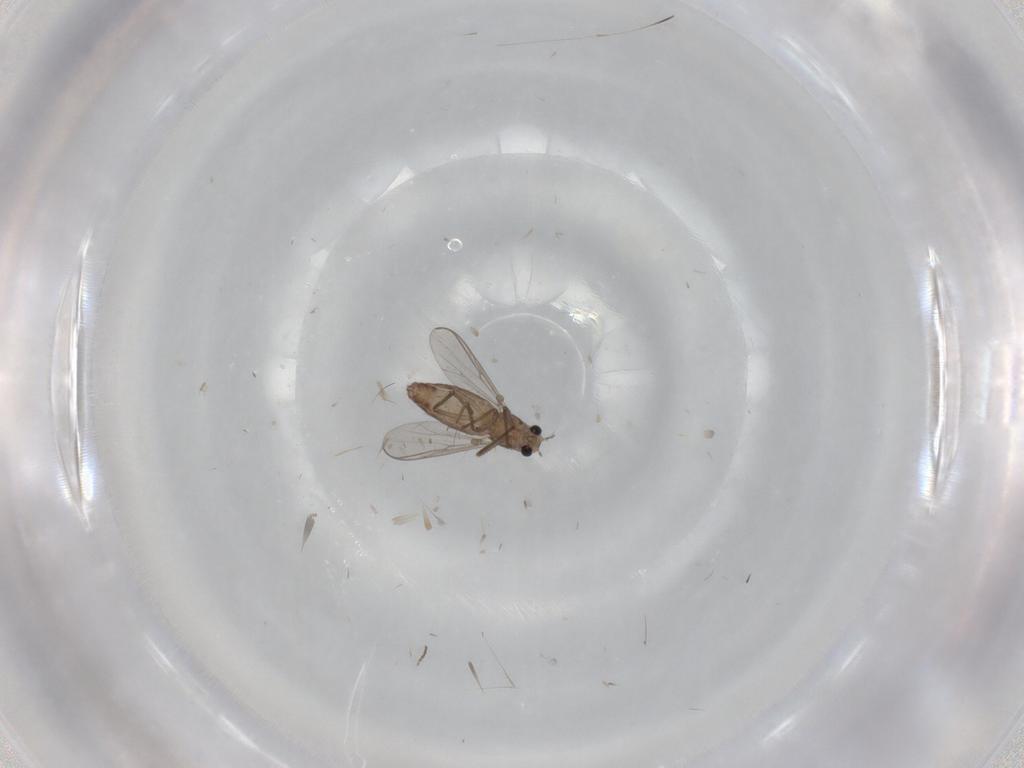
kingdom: Animalia
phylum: Arthropoda
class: Insecta
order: Diptera
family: Chironomidae
